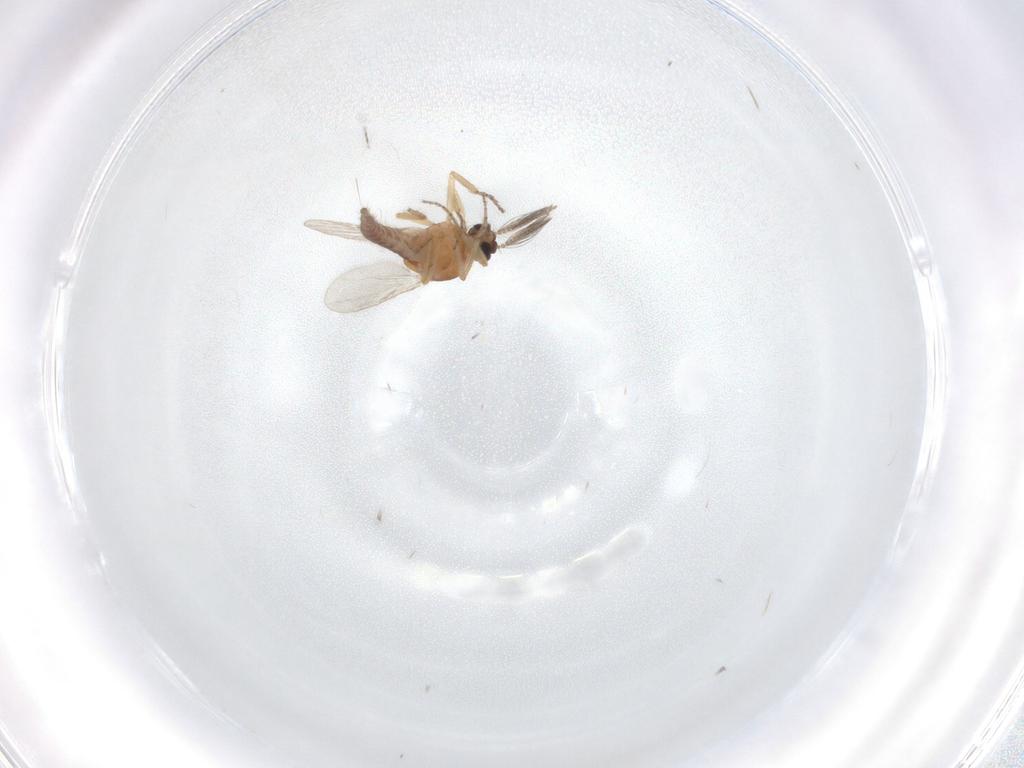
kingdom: Animalia
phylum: Arthropoda
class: Insecta
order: Diptera
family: Ceratopogonidae
